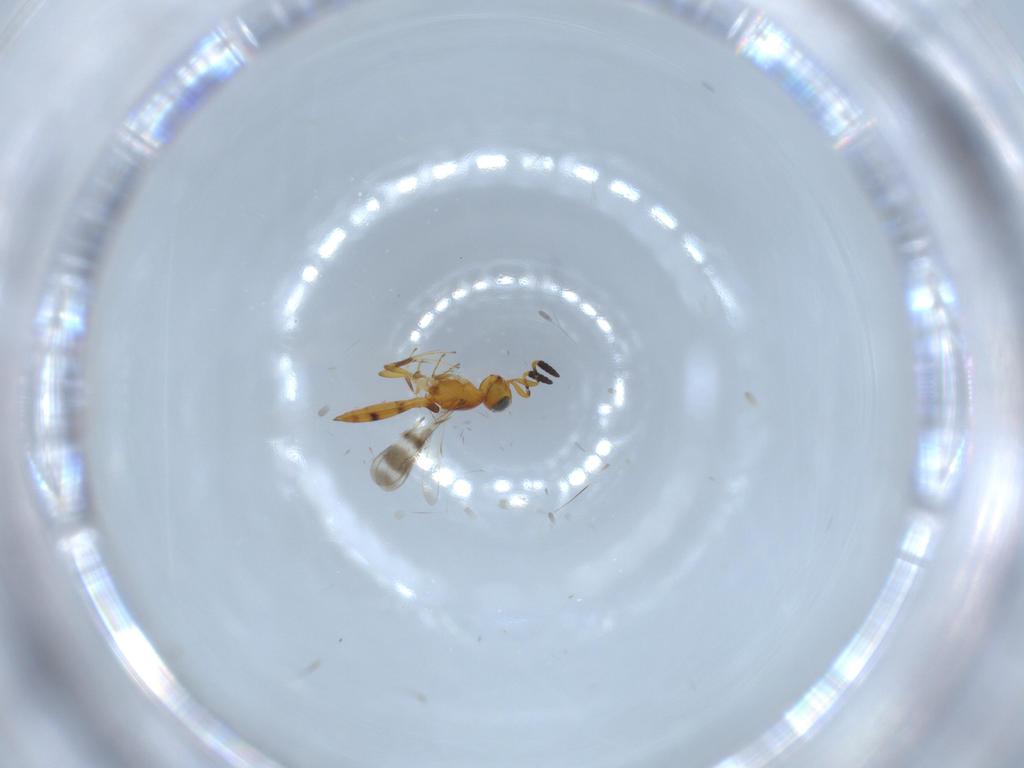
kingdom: Animalia
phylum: Arthropoda
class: Insecta
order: Hymenoptera
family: Scelionidae
